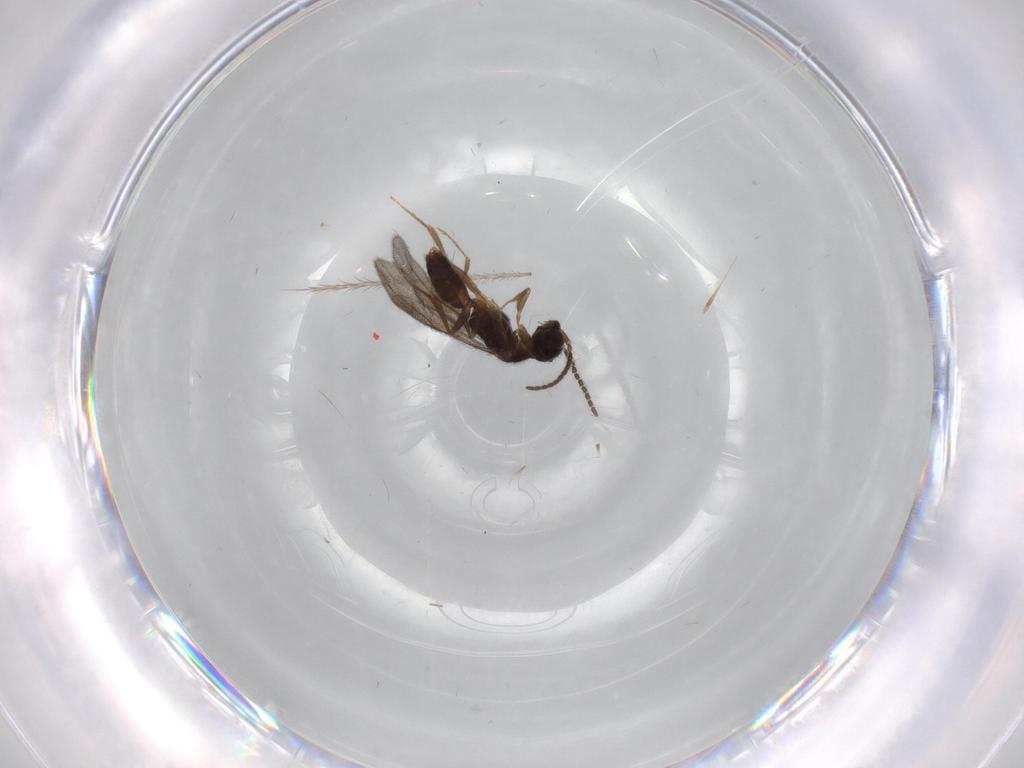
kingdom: Animalia
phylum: Arthropoda
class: Insecta
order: Hymenoptera
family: Bethylidae
